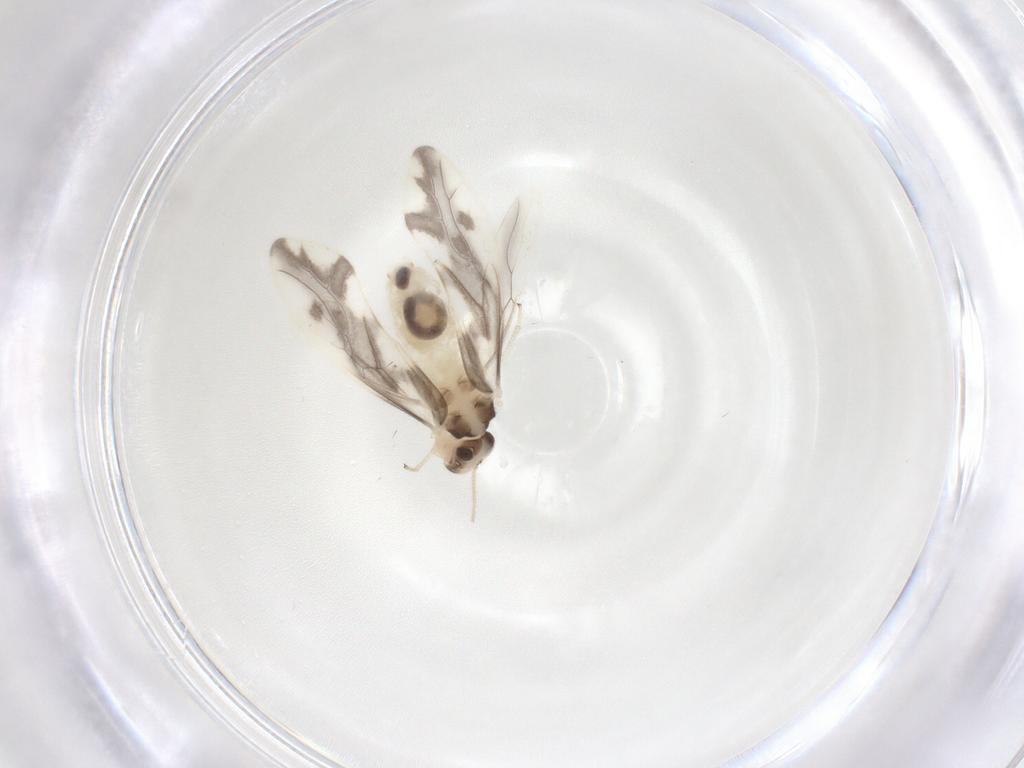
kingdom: Animalia
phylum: Arthropoda
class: Insecta
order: Psocodea
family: Caeciliusidae
